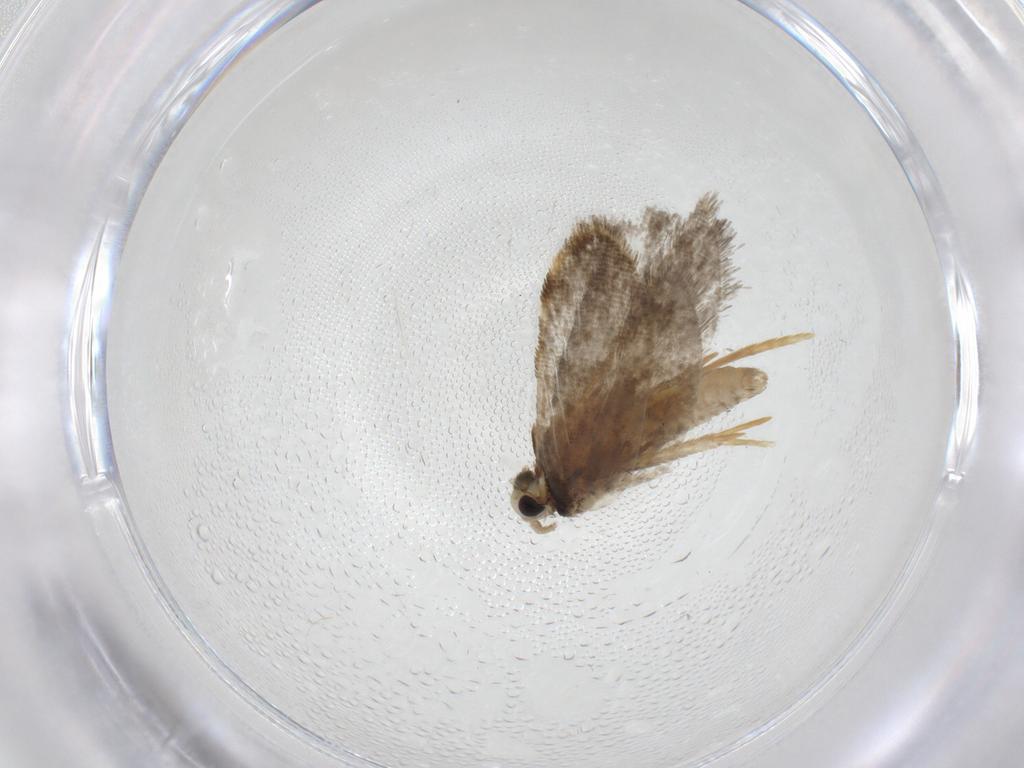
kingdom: Animalia
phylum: Arthropoda
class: Insecta
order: Lepidoptera
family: Psychidae
